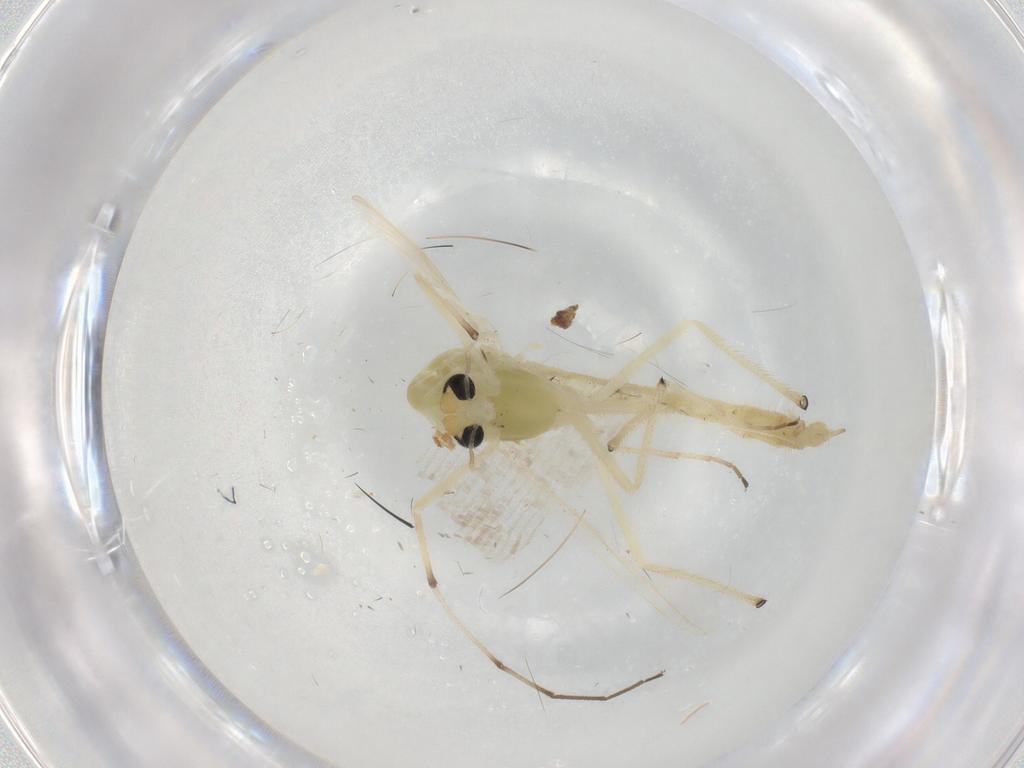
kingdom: Animalia
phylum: Arthropoda
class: Insecta
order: Diptera
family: Chironomidae
